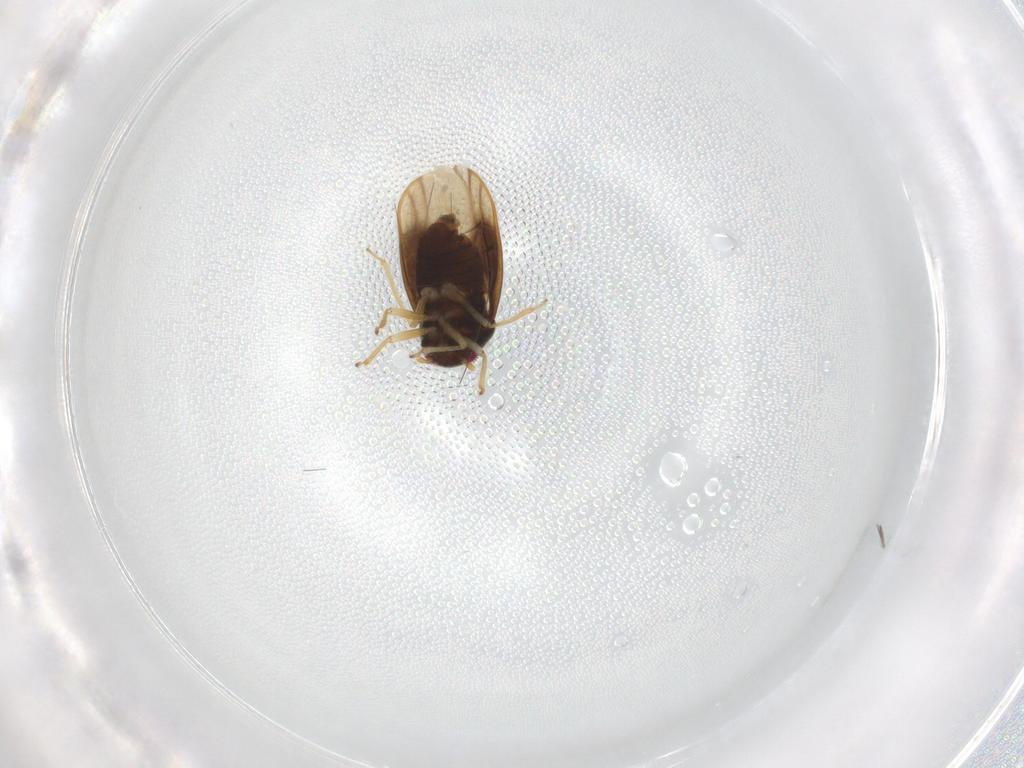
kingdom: Animalia
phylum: Arthropoda
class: Insecta
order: Hemiptera
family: Schizopteridae
